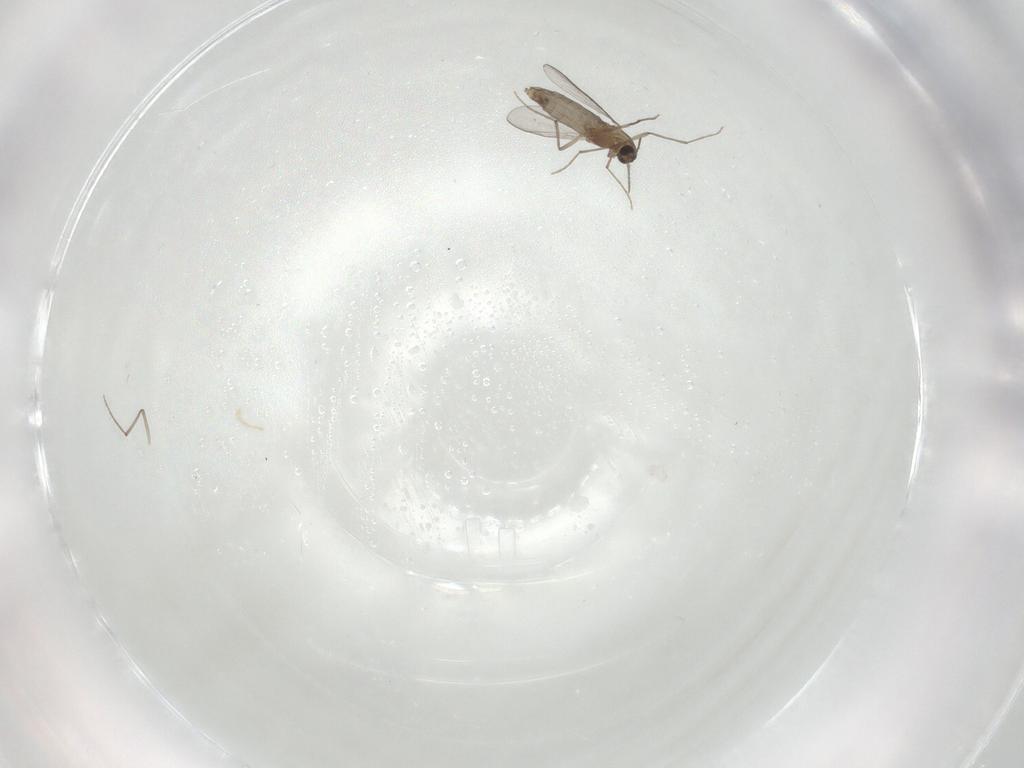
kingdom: Animalia
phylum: Arthropoda
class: Insecta
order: Diptera
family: Chironomidae
